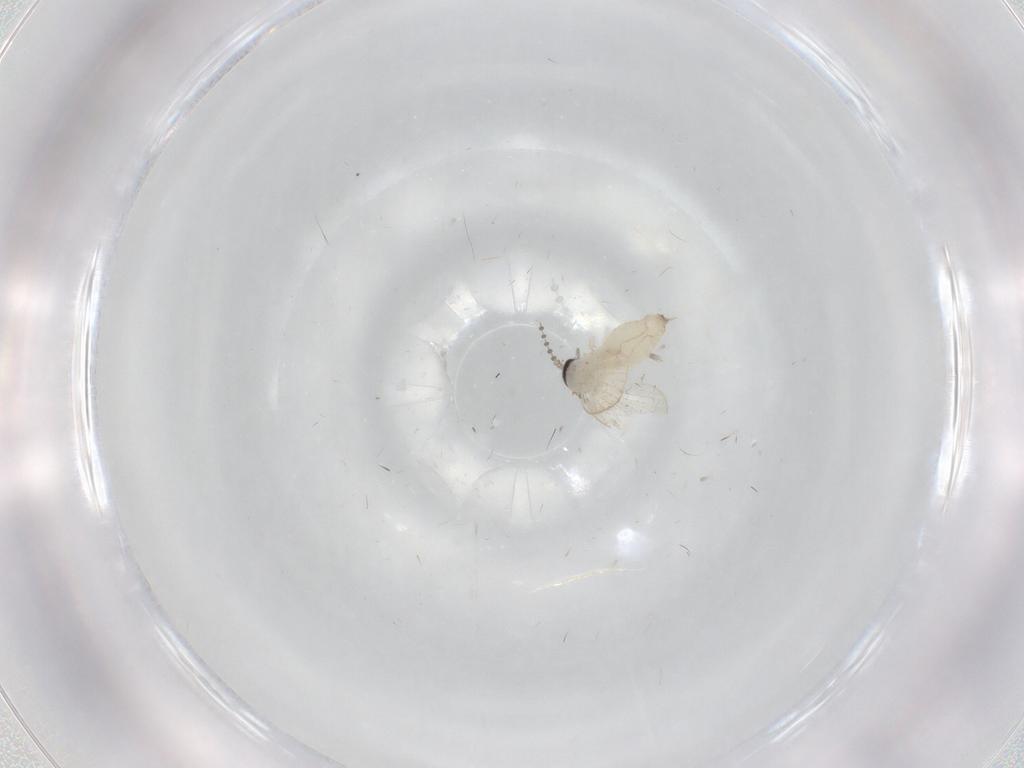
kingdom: Animalia
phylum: Arthropoda
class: Insecta
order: Diptera
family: Psychodidae
